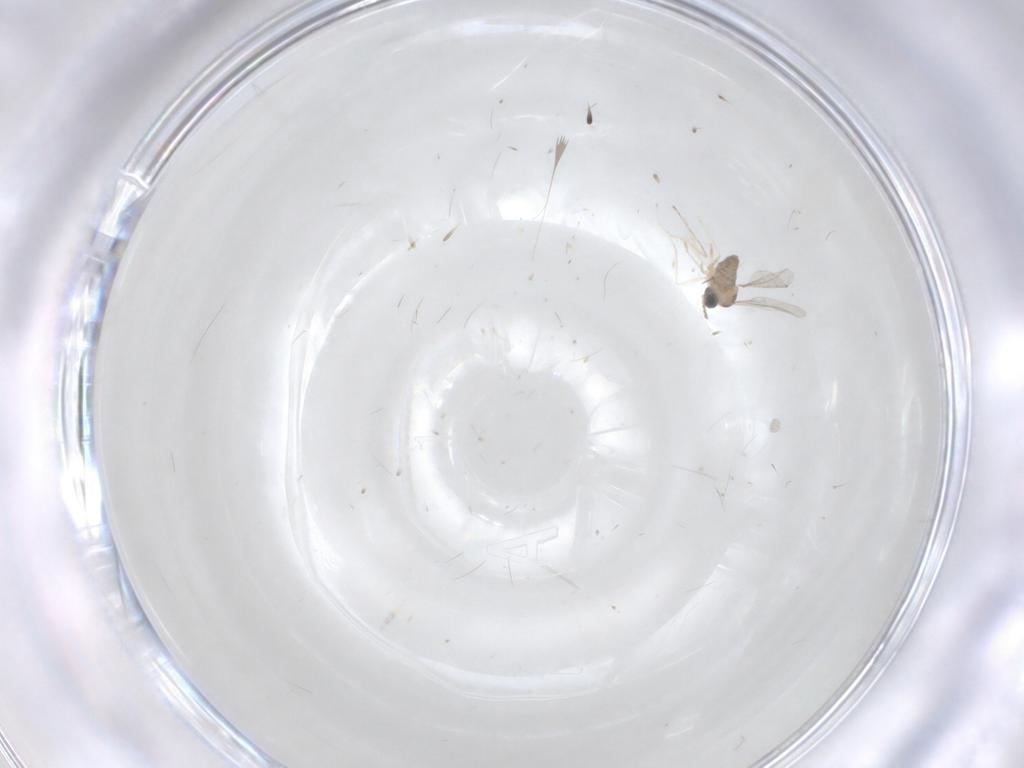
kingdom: Animalia
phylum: Arthropoda
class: Insecta
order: Diptera
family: Cecidomyiidae
